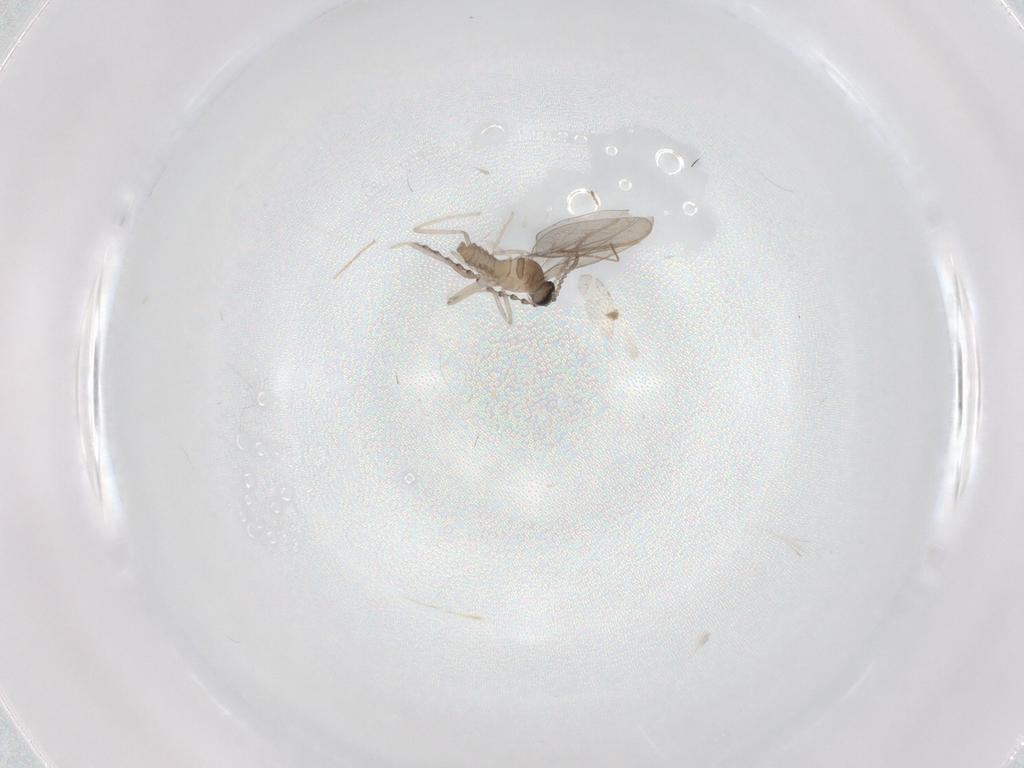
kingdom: Animalia
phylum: Arthropoda
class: Insecta
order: Diptera
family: Cecidomyiidae
